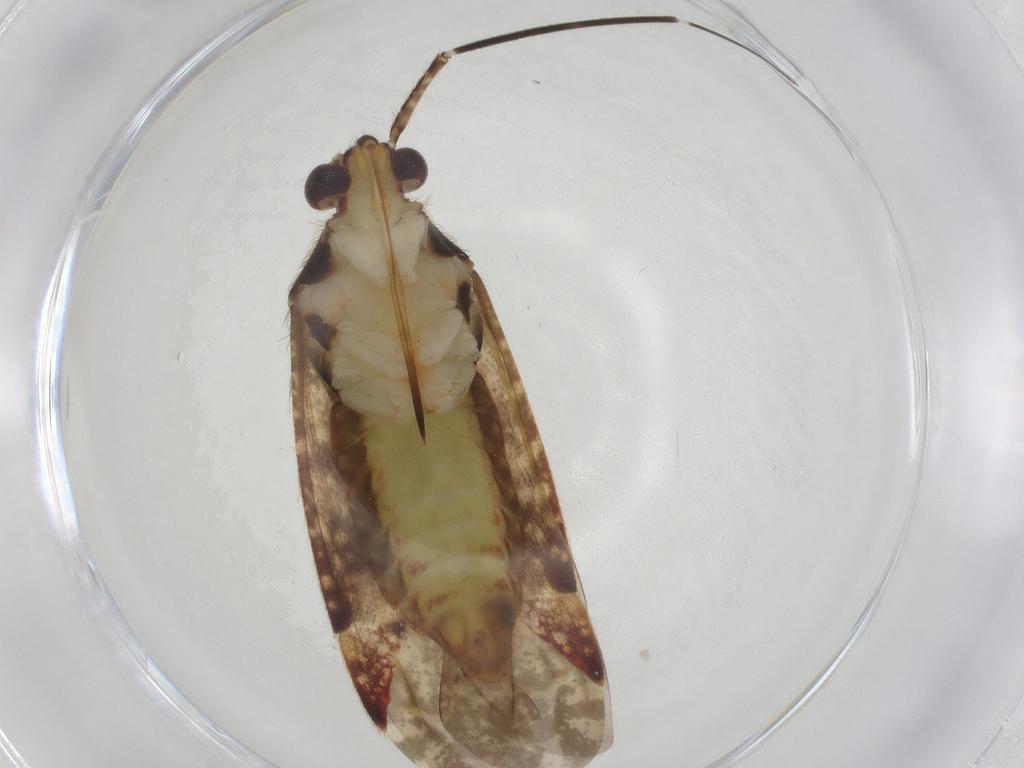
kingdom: Animalia
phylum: Arthropoda
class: Insecta
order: Hemiptera
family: Miridae
